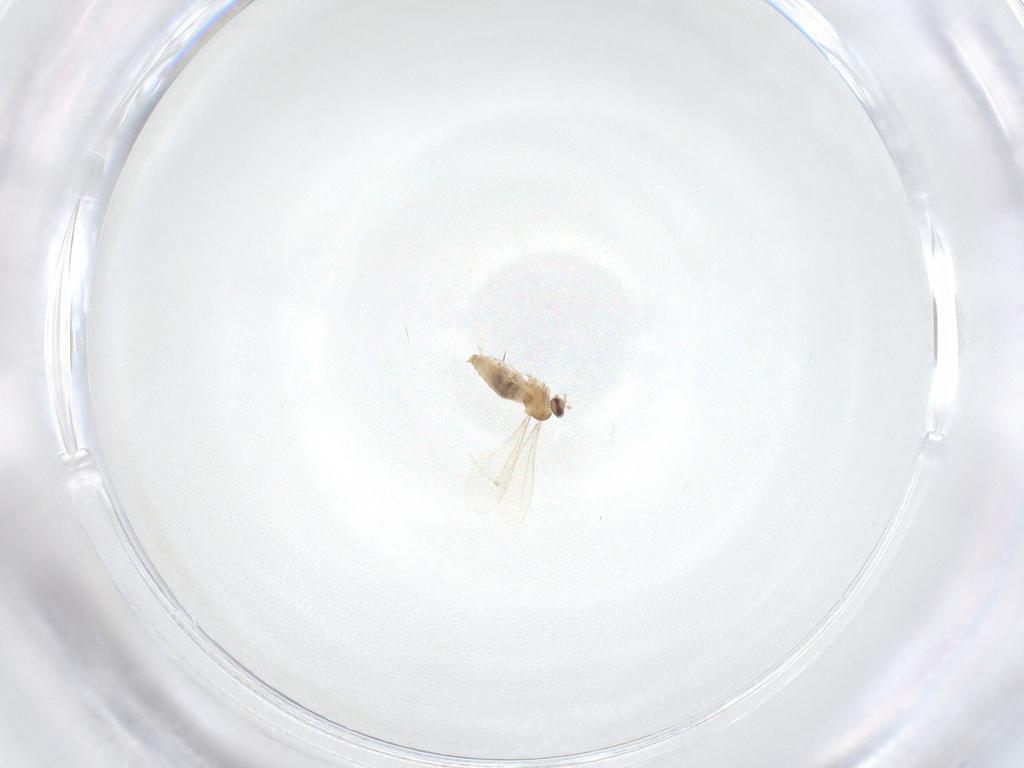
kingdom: Animalia
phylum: Arthropoda
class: Insecta
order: Diptera
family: Cecidomyiidae
